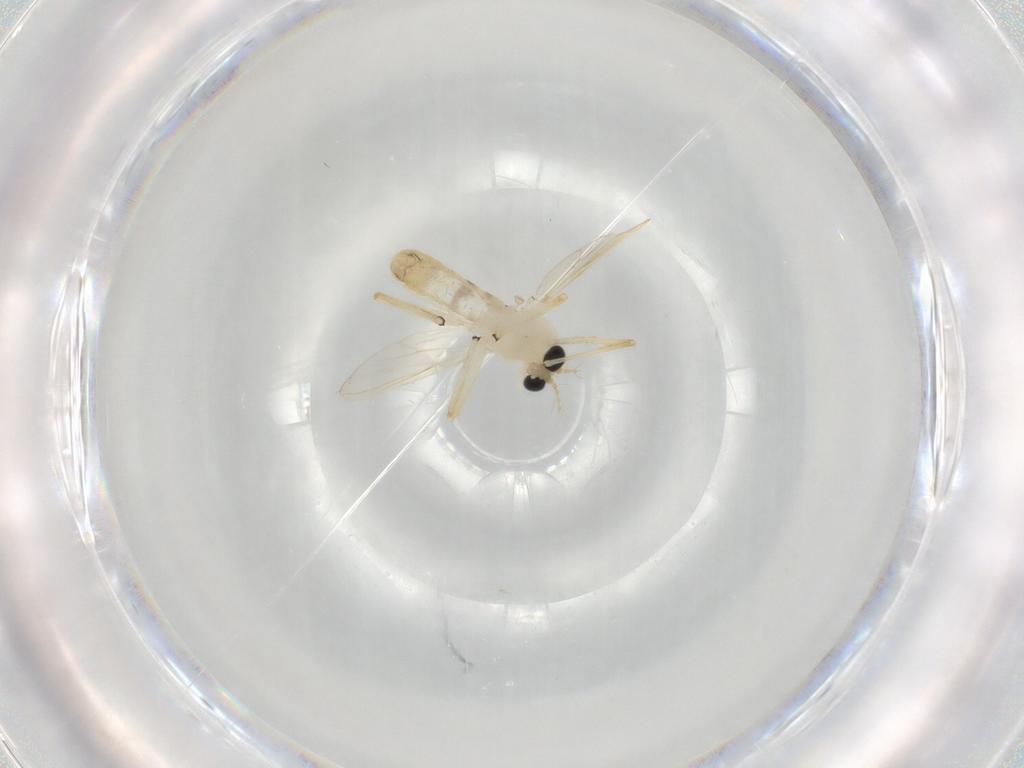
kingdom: Animalia
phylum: Arthropoda
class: Insecta
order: Diptera
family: Chironomidae
